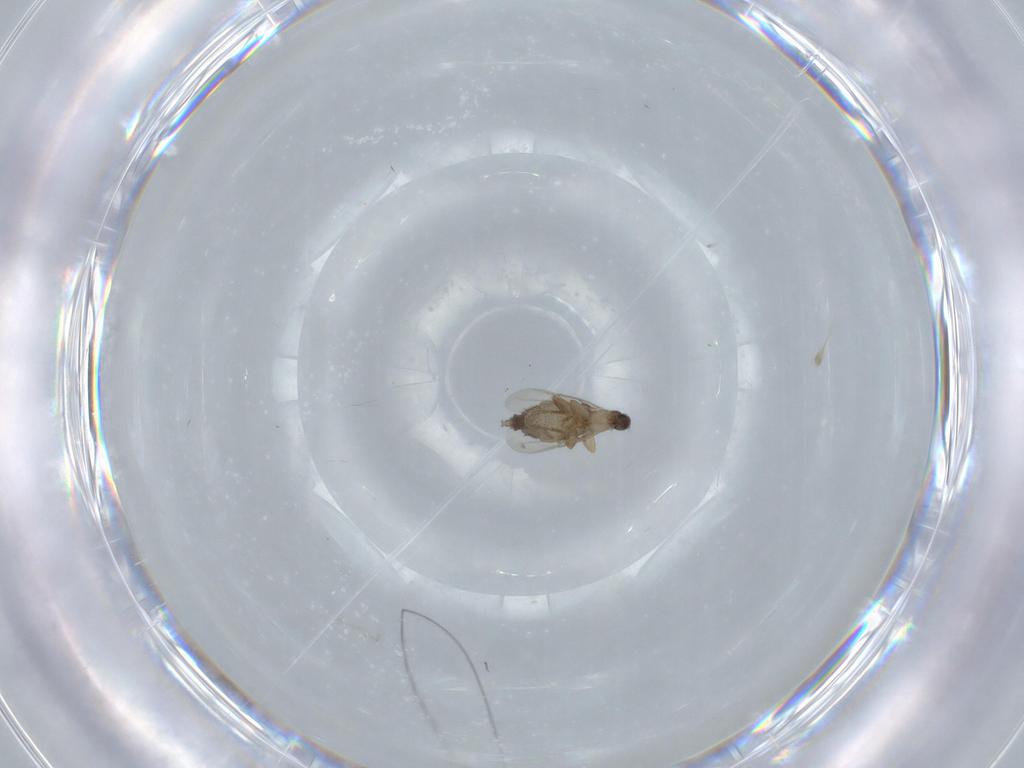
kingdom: Animalia
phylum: Arthropoda
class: Insecta
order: Diptera
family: Phoridae
